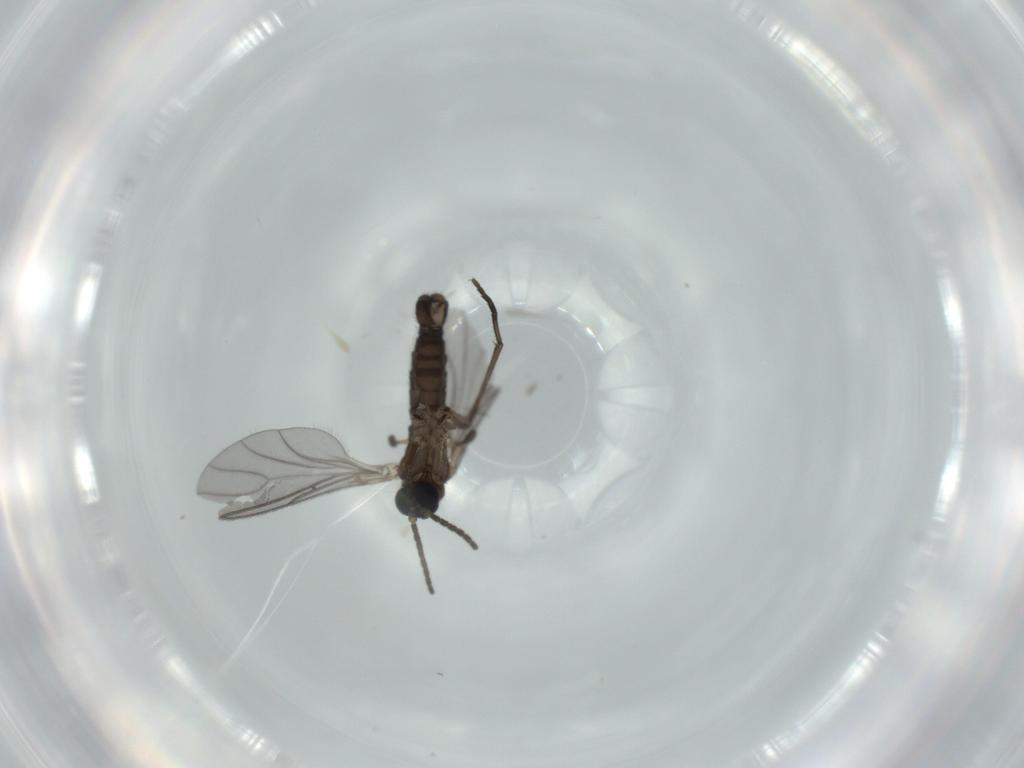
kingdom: Animalia
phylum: Arthropoda
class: Insecta
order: Diptera
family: Sciaridae
